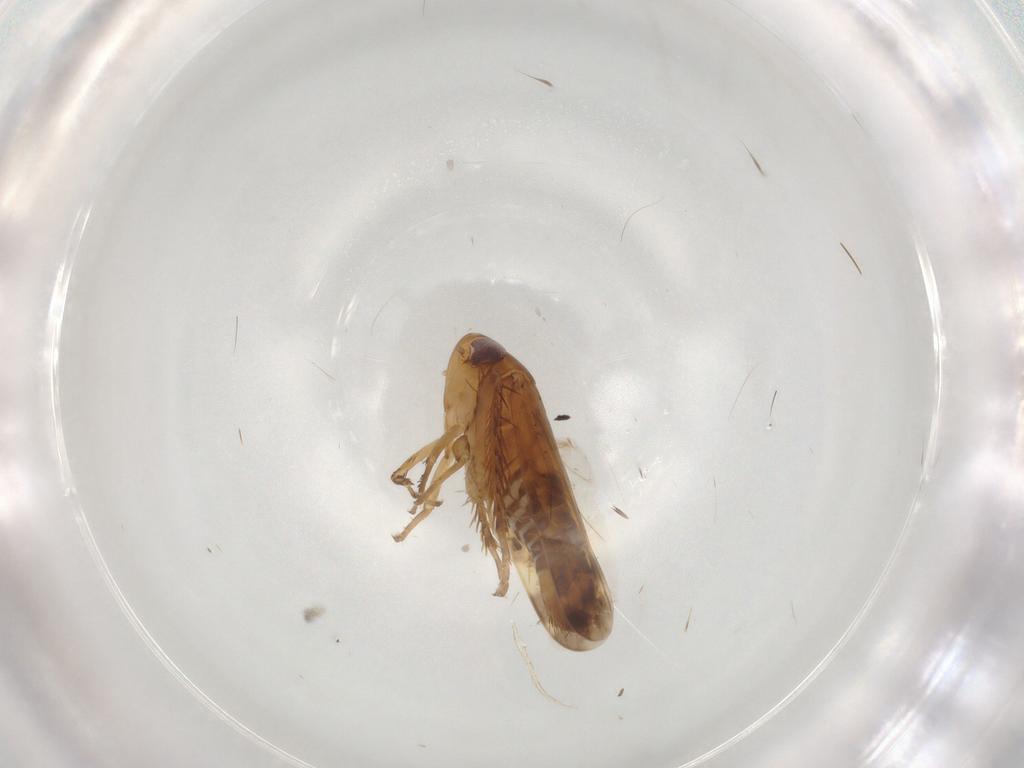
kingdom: Animalia
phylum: Arthropoda
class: Insecta
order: Hemiptera
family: Cicadellidae
